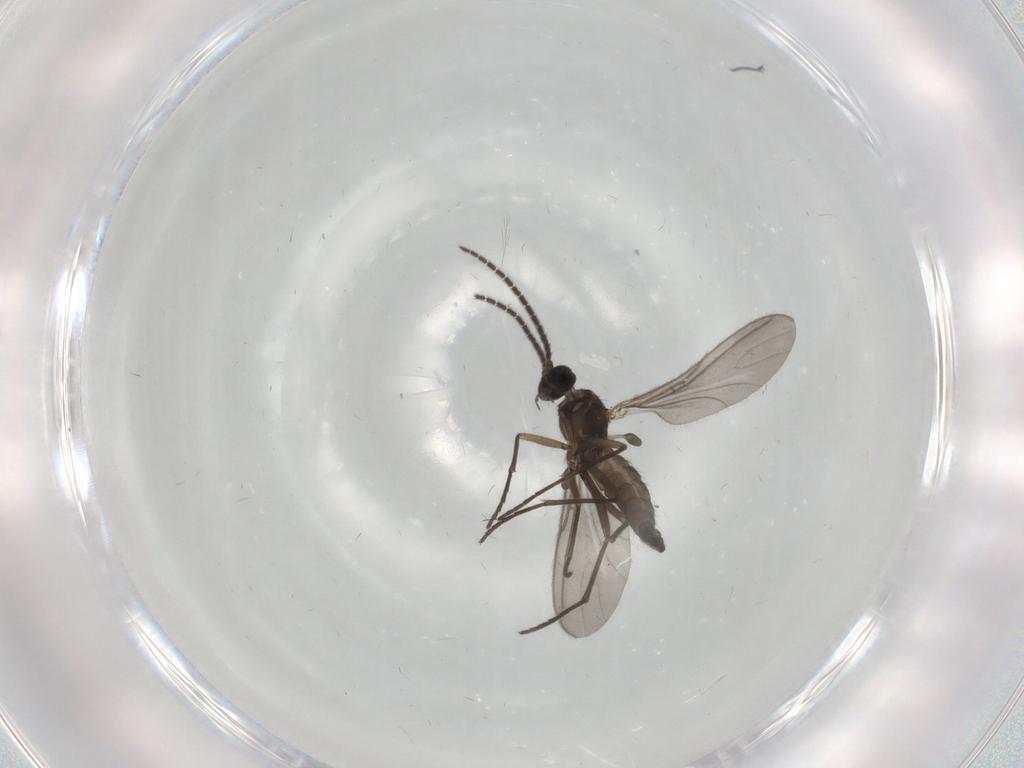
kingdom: Animalia
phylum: Arthropoda
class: Insecta
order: Diptera
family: Sciaridae
